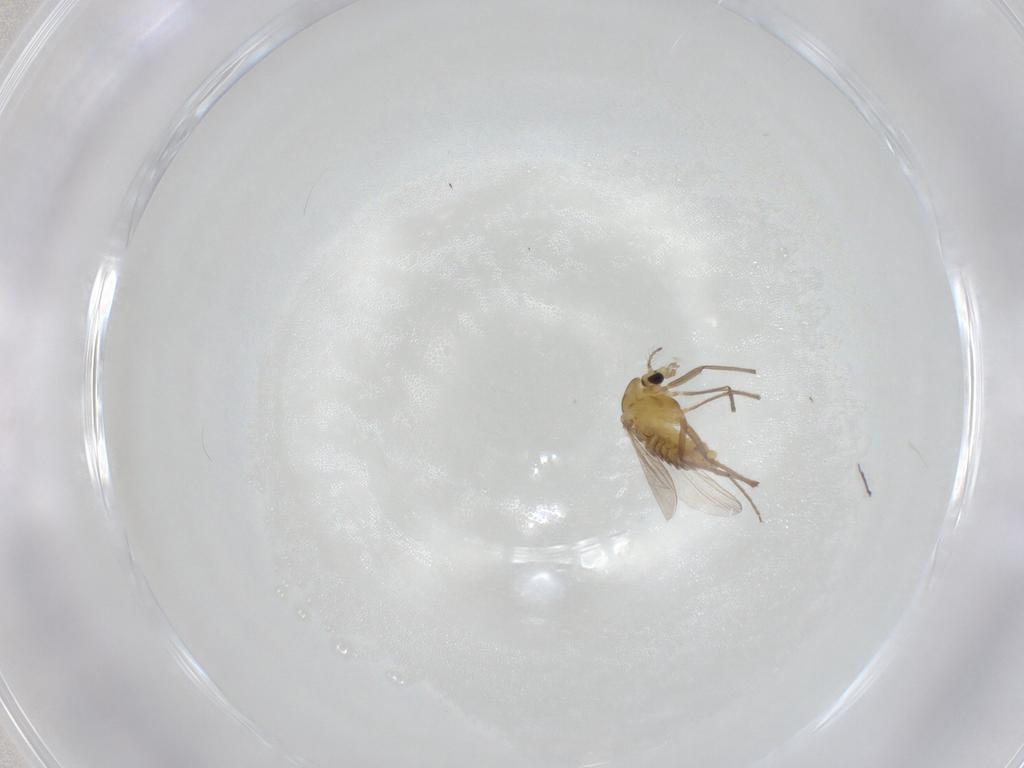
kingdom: Animalia
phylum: Arthropoda
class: Insecta
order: Diptera
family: Chironomidae
